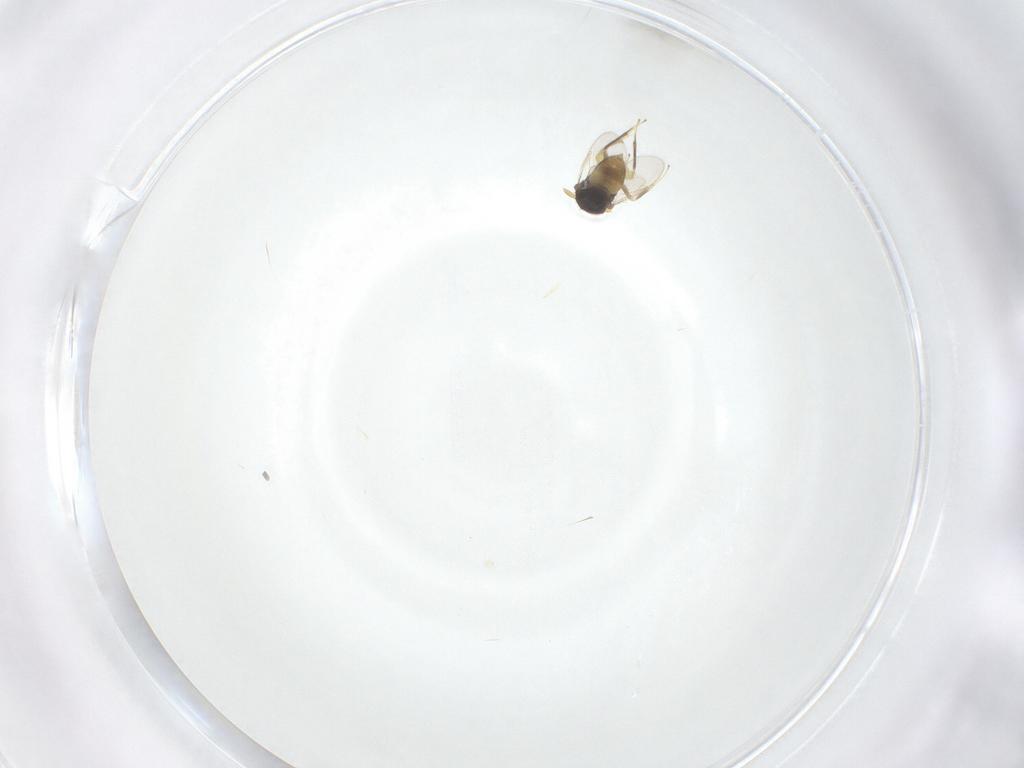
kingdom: Animalia
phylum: Arthropoda
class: Insecta
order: Hymenoptera
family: Aphelinidae
